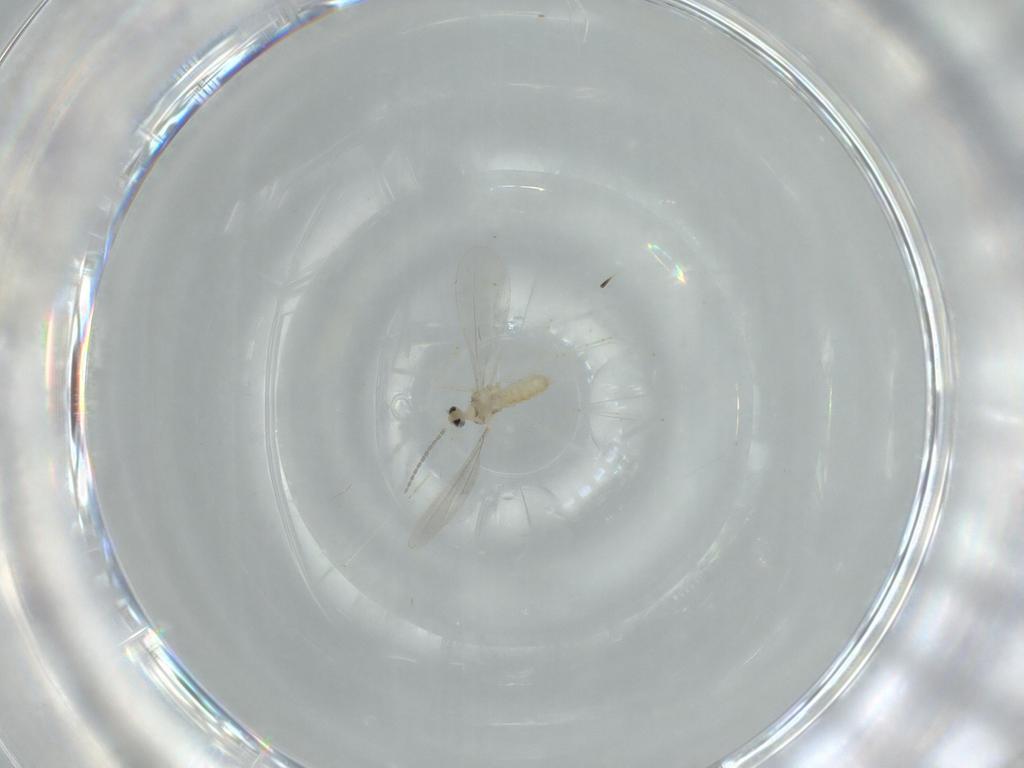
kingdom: Animalia
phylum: Arthropoda
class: Insecta
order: Diptera
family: Cecidomyiidae
